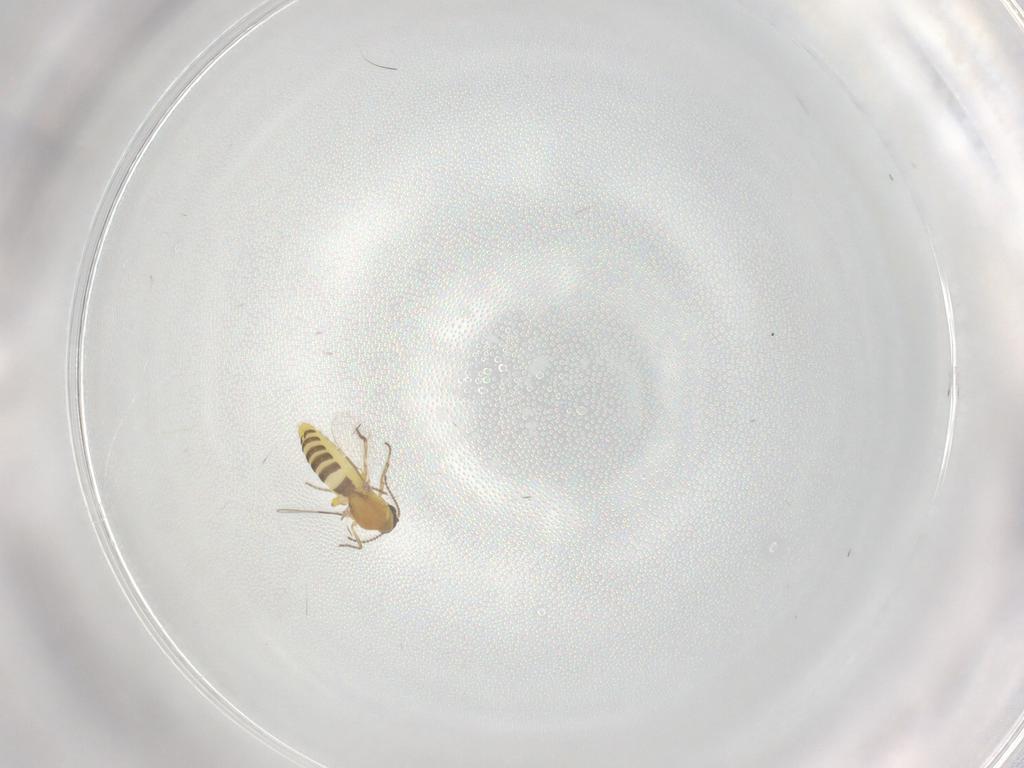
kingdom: Animalia
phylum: Arthropoda
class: Insecta
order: Diptera
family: Ceratopogonidae
